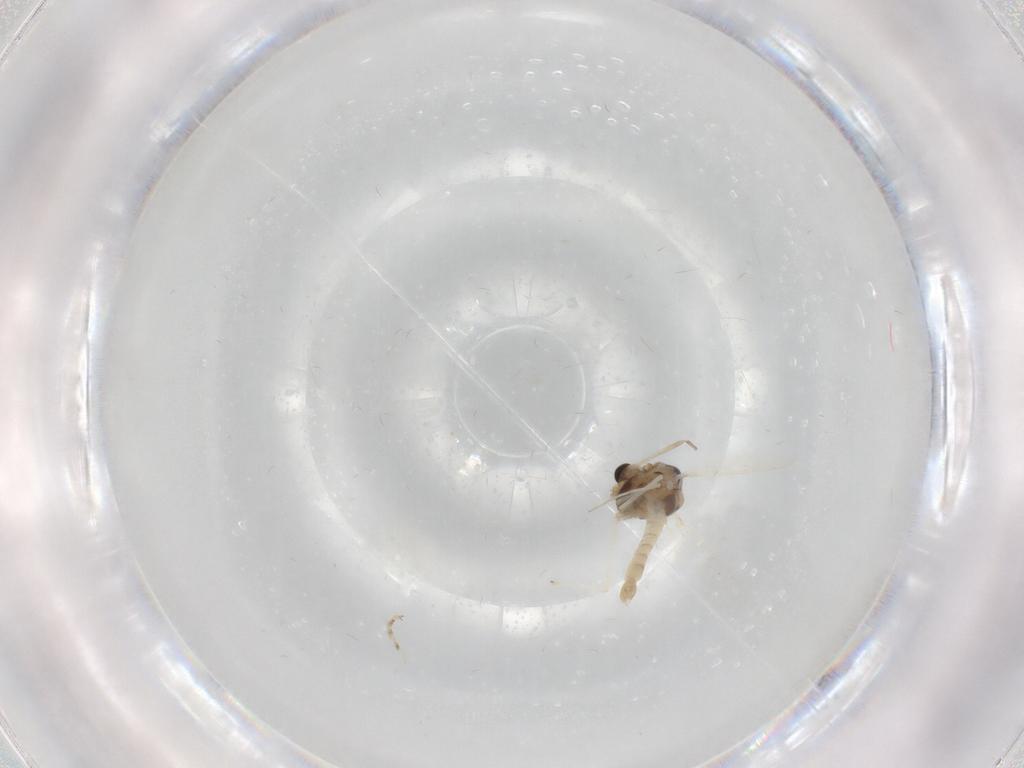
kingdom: Animalia
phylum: Arthropoda
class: Insecta
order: Diptera
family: Chironomidae
